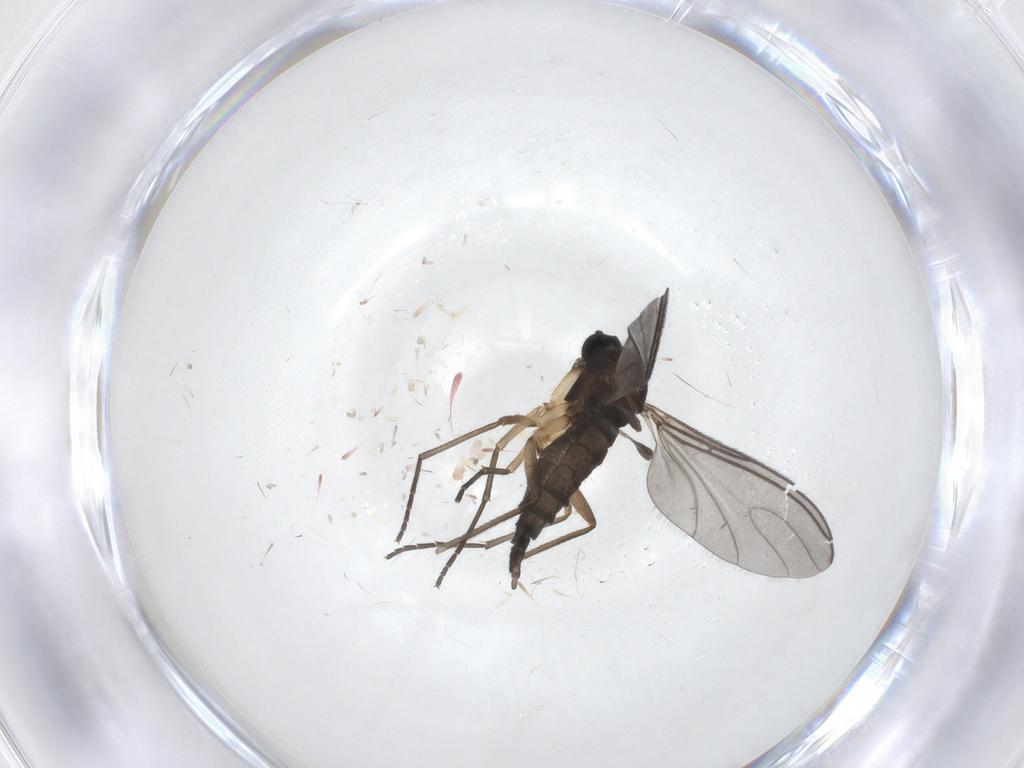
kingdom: Animalia
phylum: Arthropoda
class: Insecta
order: Diptera
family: Sciaridae
